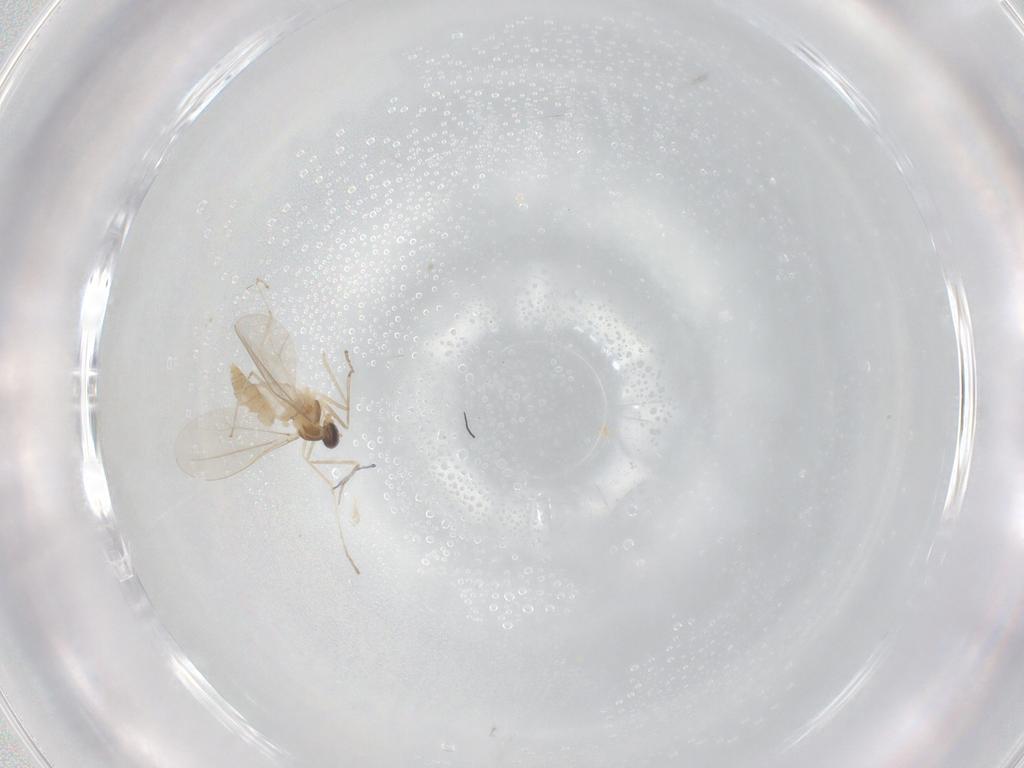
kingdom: Animalia
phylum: Arthropoda
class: Insecta
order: Diptera
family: Cecidomyiidae
